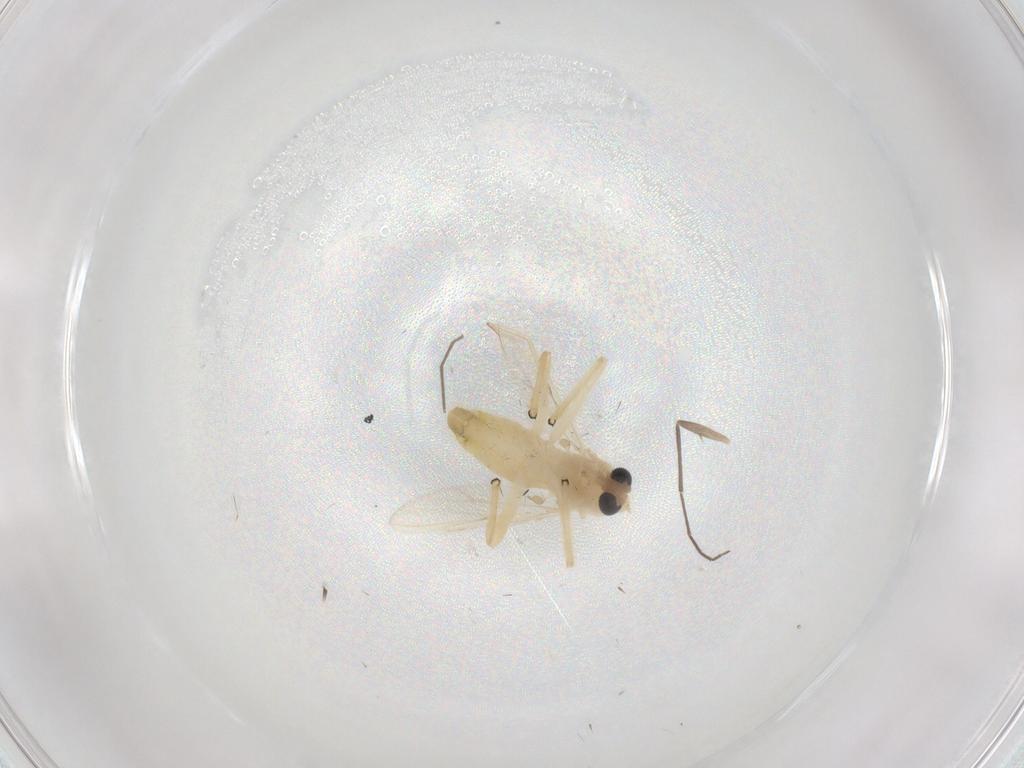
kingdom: Animalia
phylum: Arthropoda
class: Insecta
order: Diptera
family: Chironomidae
